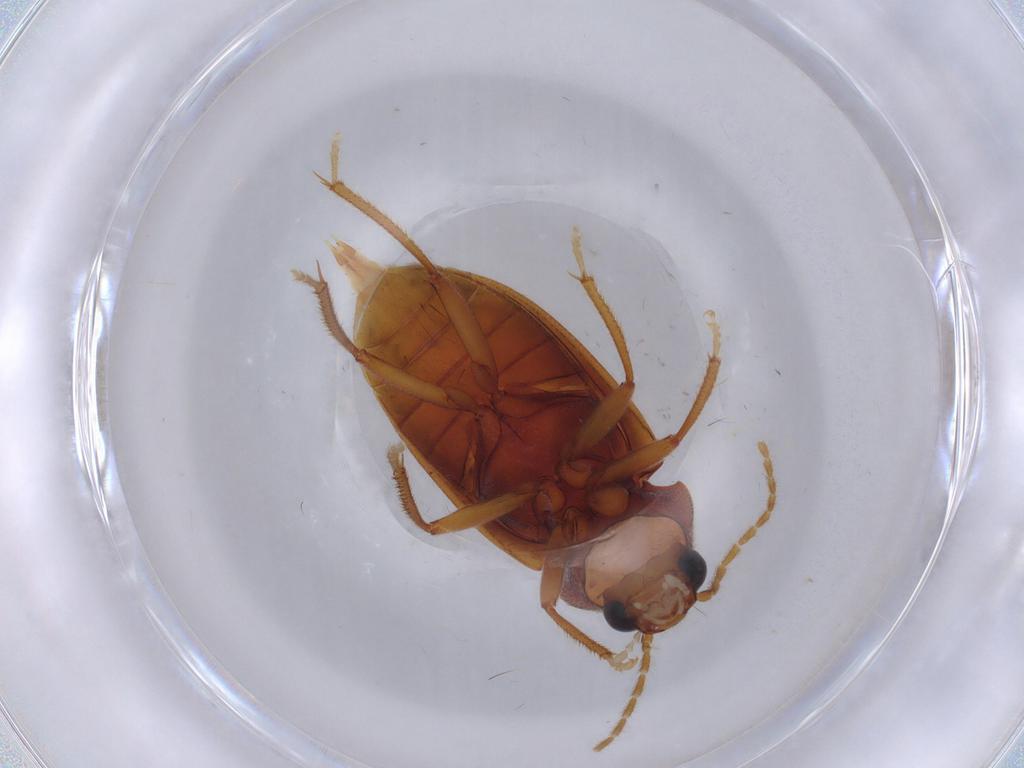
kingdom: Animalia
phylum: Arthropoda
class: Insecta
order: Coleoptera
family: Ptilodactylidae
